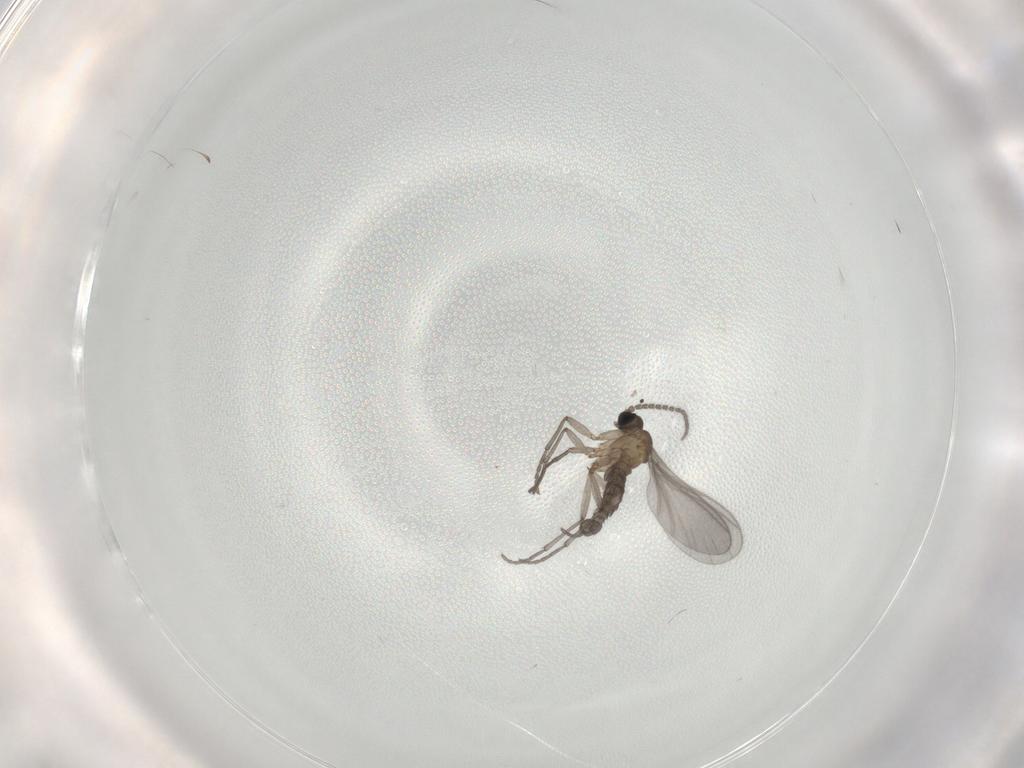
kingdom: Animalia
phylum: Arthropoda
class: Insecta
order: Diptera
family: Sciaridae
